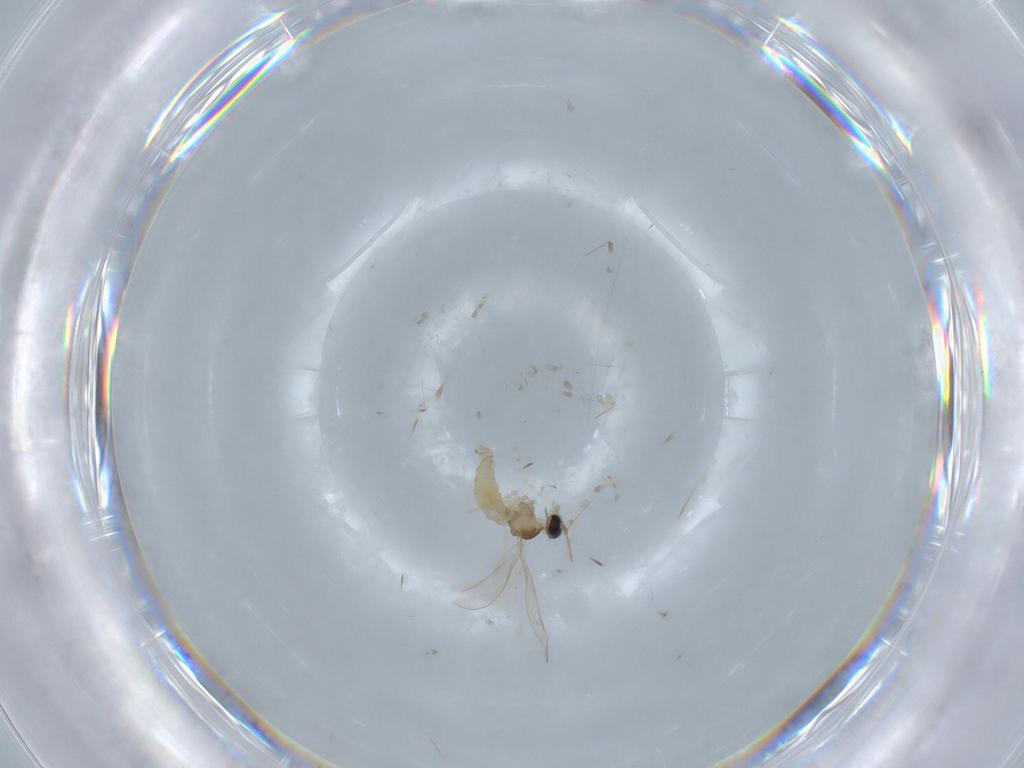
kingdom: Animalia
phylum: Arthropoda
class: Insecta
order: Diptera
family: Cecidomyiidae
